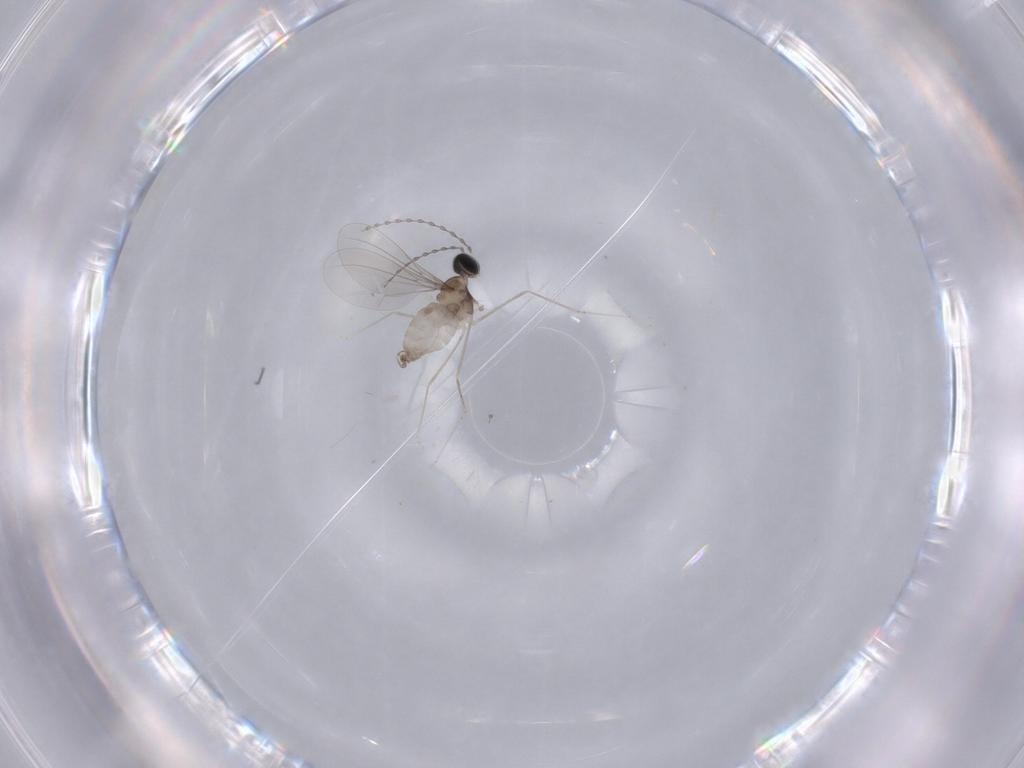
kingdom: Animalia
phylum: Arthropoda
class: Insecta
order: Diptera
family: Cecidomyiidae
